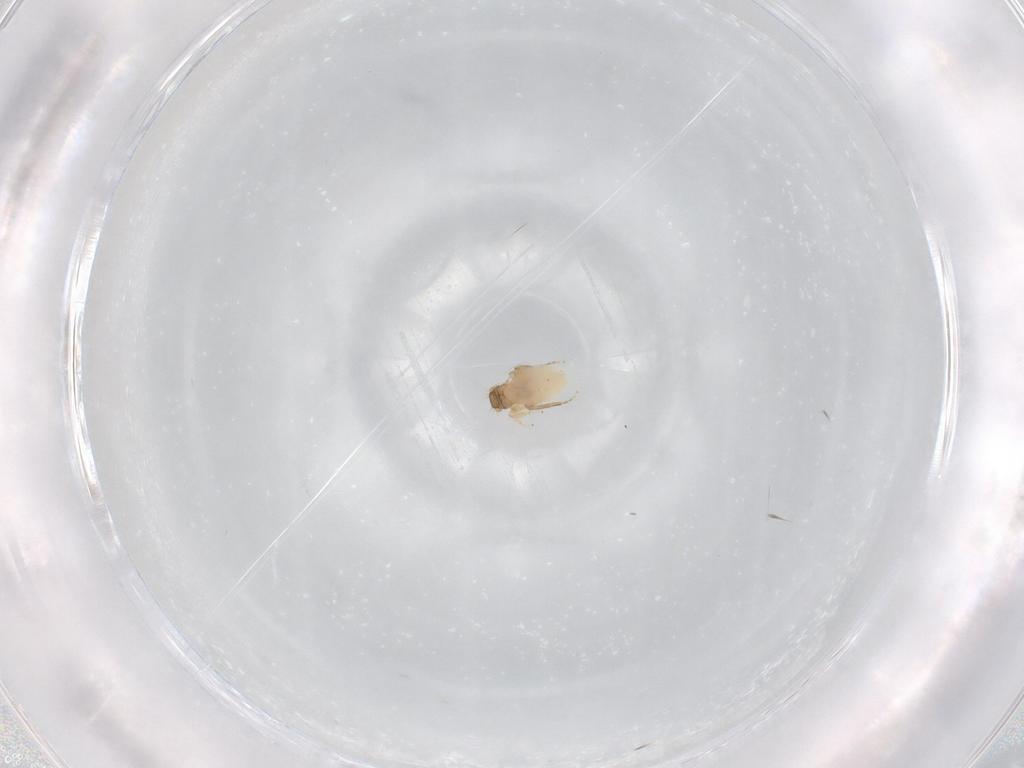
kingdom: Animalia
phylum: Arthropoda
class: Insecta
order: Diptera
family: Phoridae
